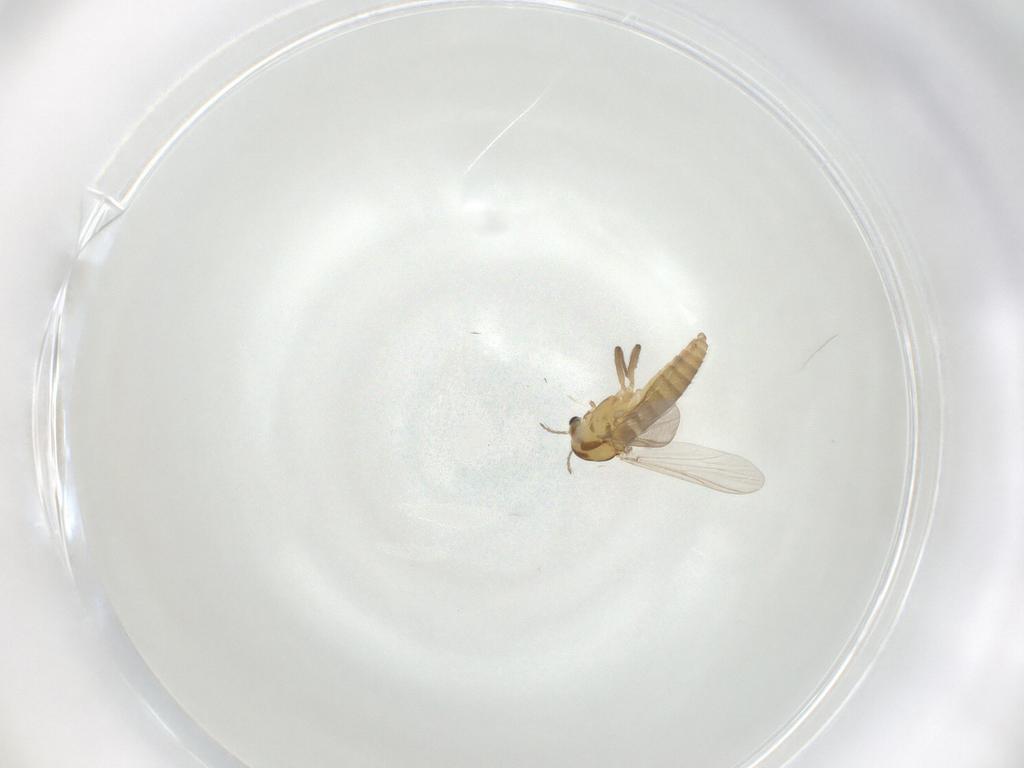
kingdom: Animalia
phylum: Arthropoda
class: Insecta
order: Diptera
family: Chironomidae
